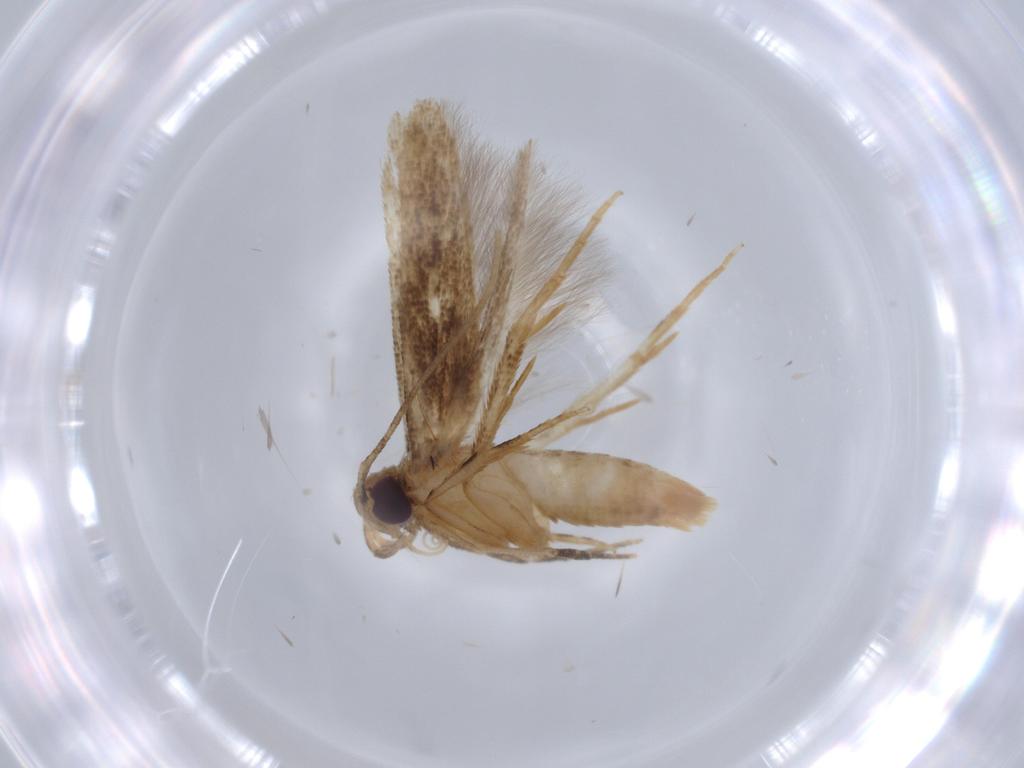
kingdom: Animalia
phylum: Arthropoda
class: Insecta
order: Lepidoptera
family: Cosmopterigidae
